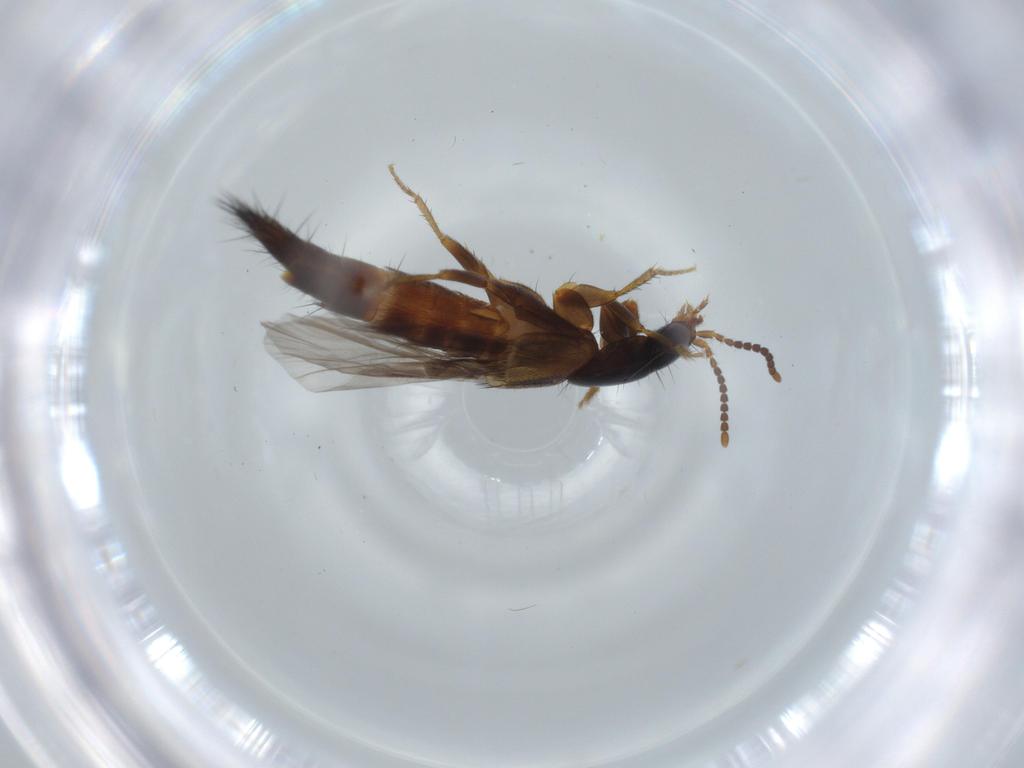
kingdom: Animalia
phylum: Arthropoda
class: Insecta
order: Coleoptera
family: Staphylinidae
